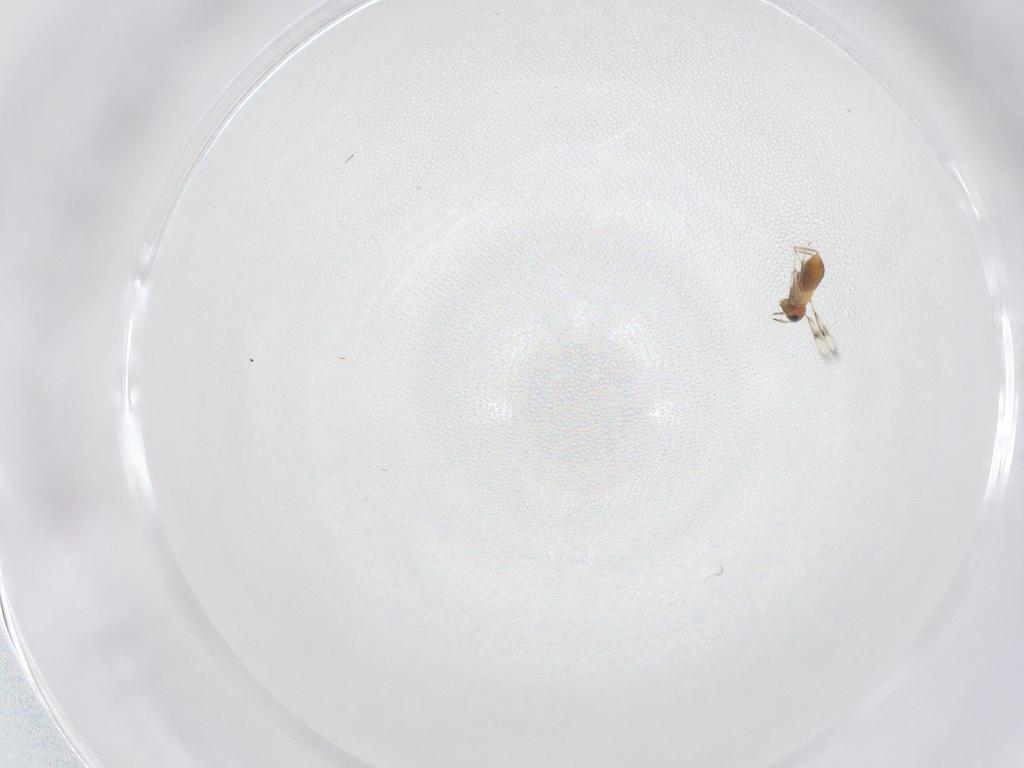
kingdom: Animalia
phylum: Arthropoda
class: Insecta
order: Hymenoptera
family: Trichogrammatidae
